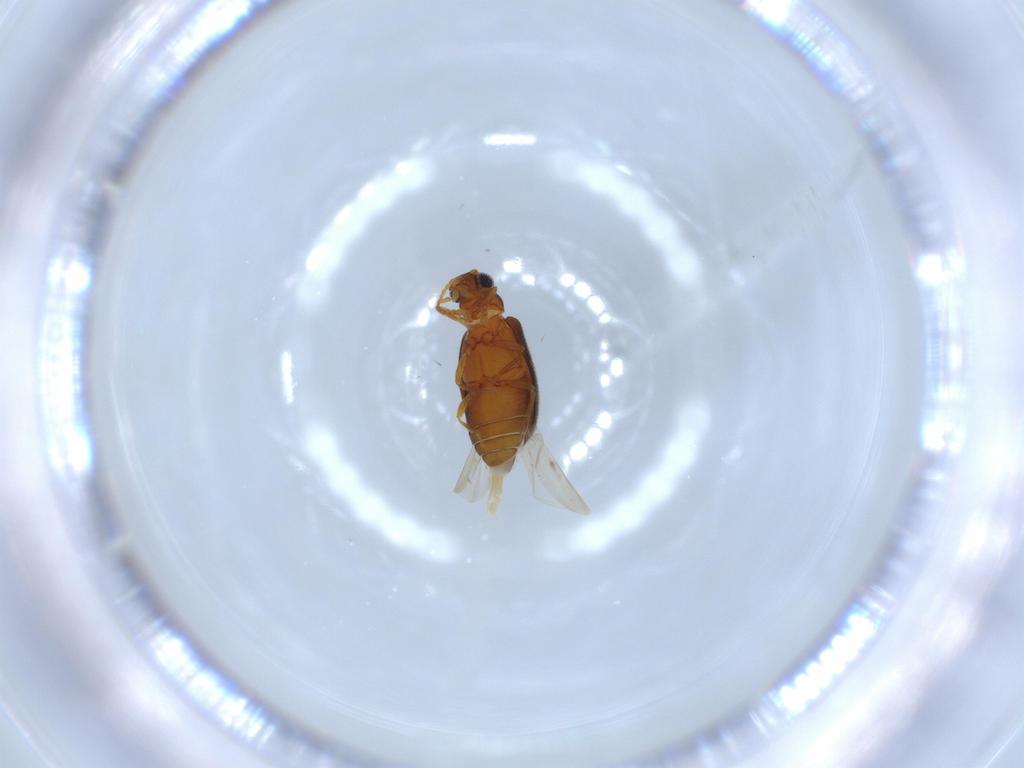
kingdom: Animalia
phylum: Arthropoda
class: Insecta
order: Coleoptera
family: Aderidae
